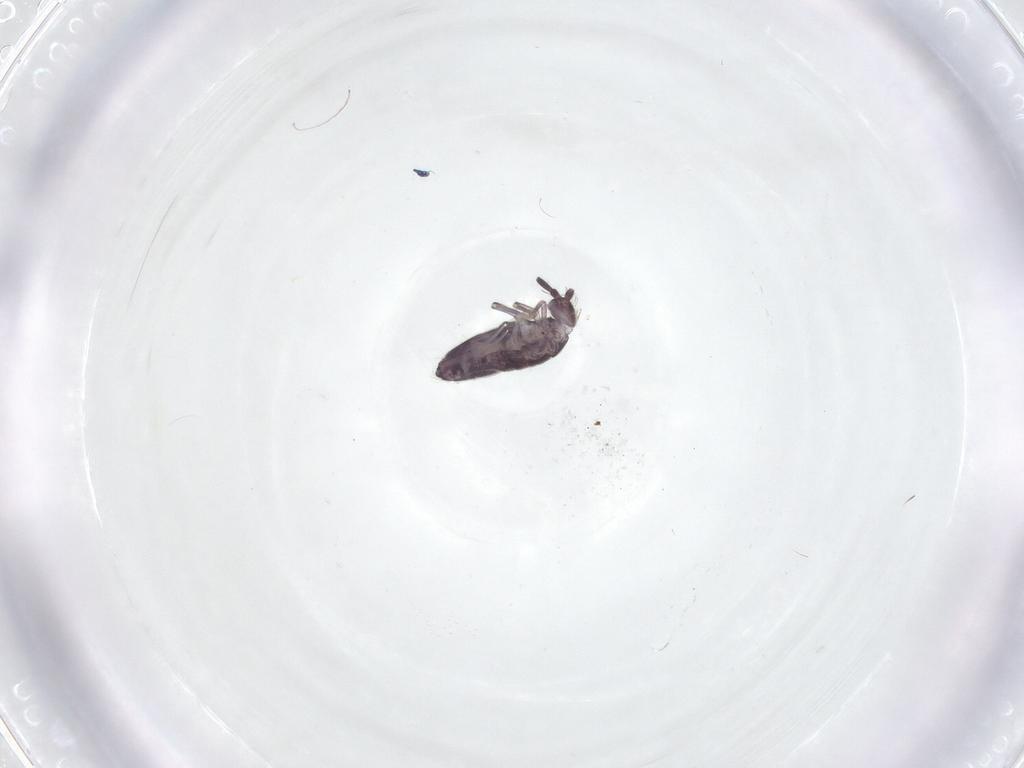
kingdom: Animalia
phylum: Arthropoda
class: Collembola
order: Entomobryomorpha
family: Entomobryidae
